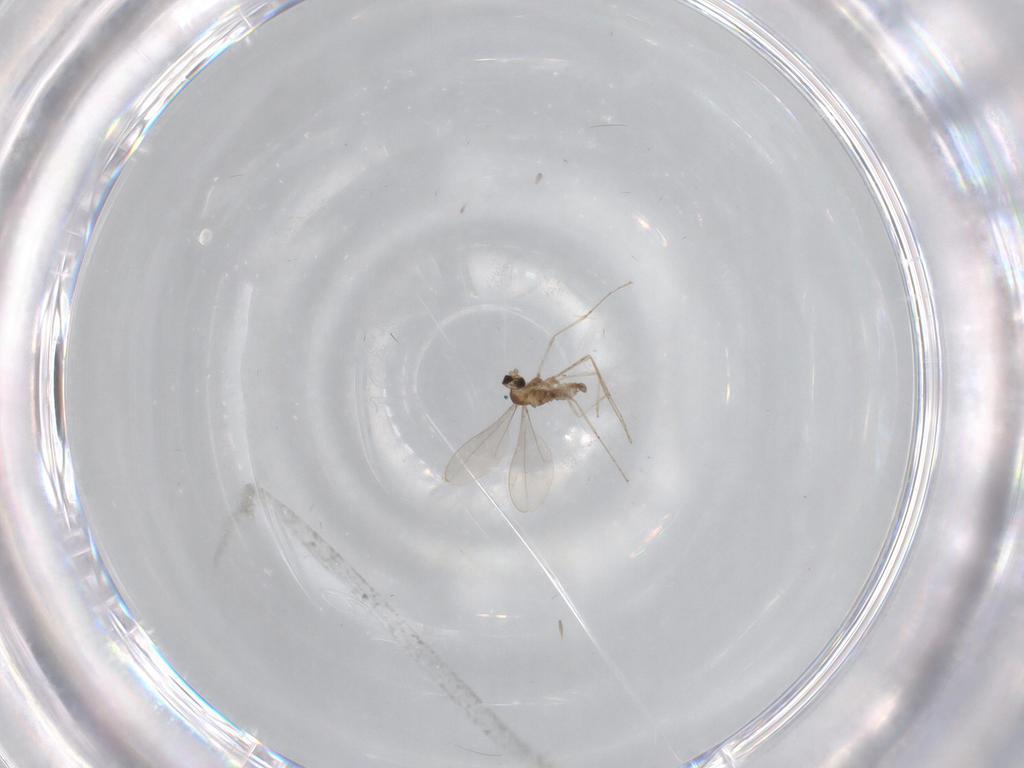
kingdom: Animalia
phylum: Arthropoda
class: Insecta
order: Diptera
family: Cecidomyiidae
